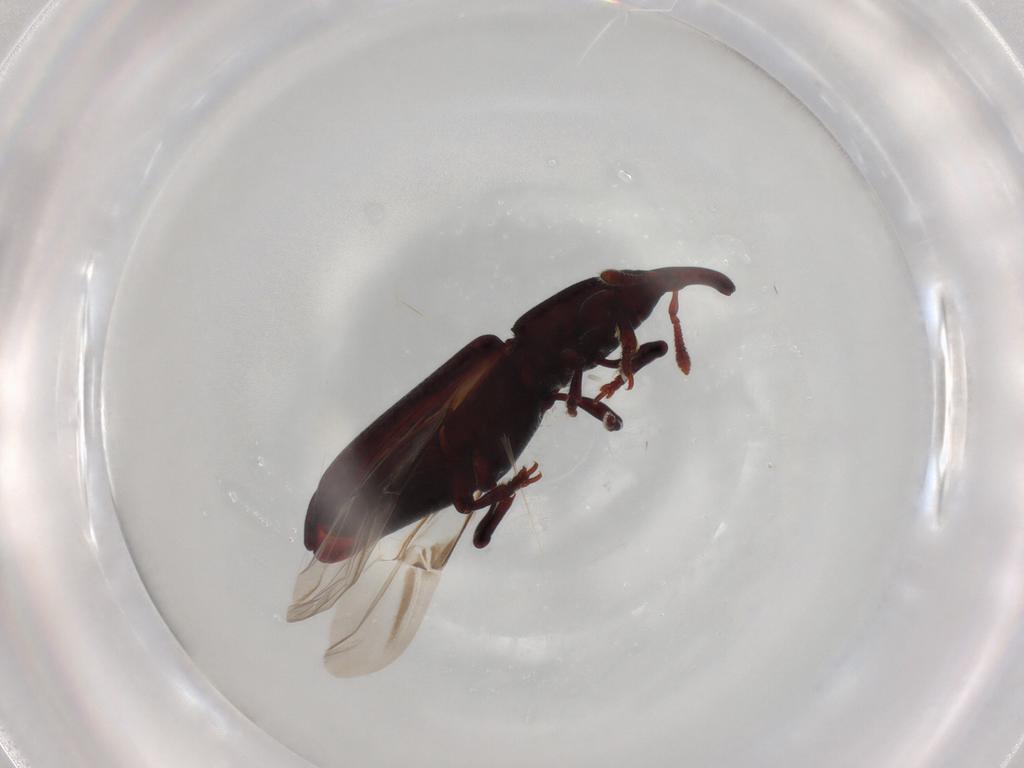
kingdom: Animalia
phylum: Arthropoda
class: Insecta
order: Coleoptera
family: Curculionidae
